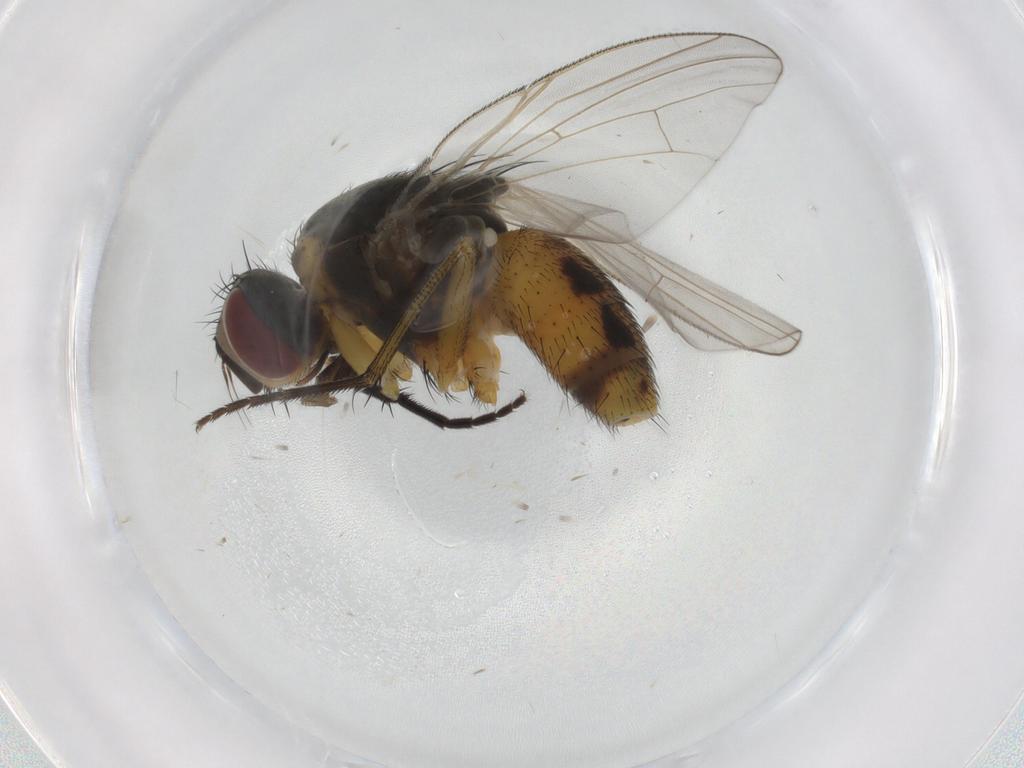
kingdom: Animalia
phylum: Arthropoda
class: Insecta
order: Diptera
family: Muscidae
